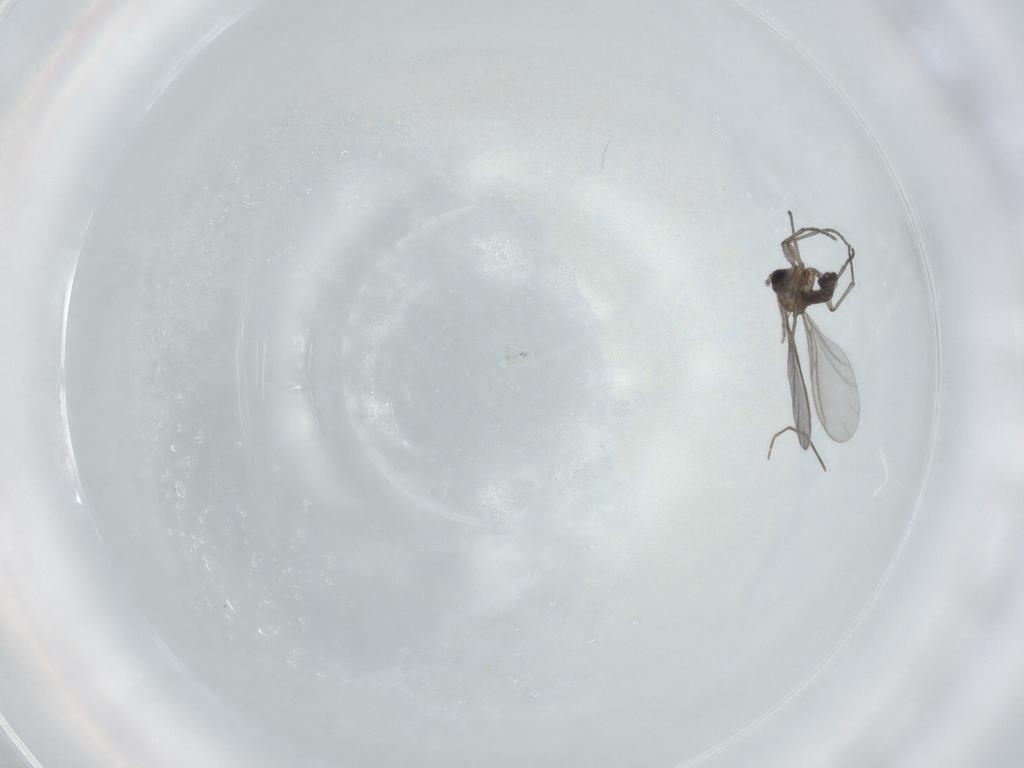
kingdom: Animalia
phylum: Arthropoda
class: Insecta
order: Diptera
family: Sciaridae
